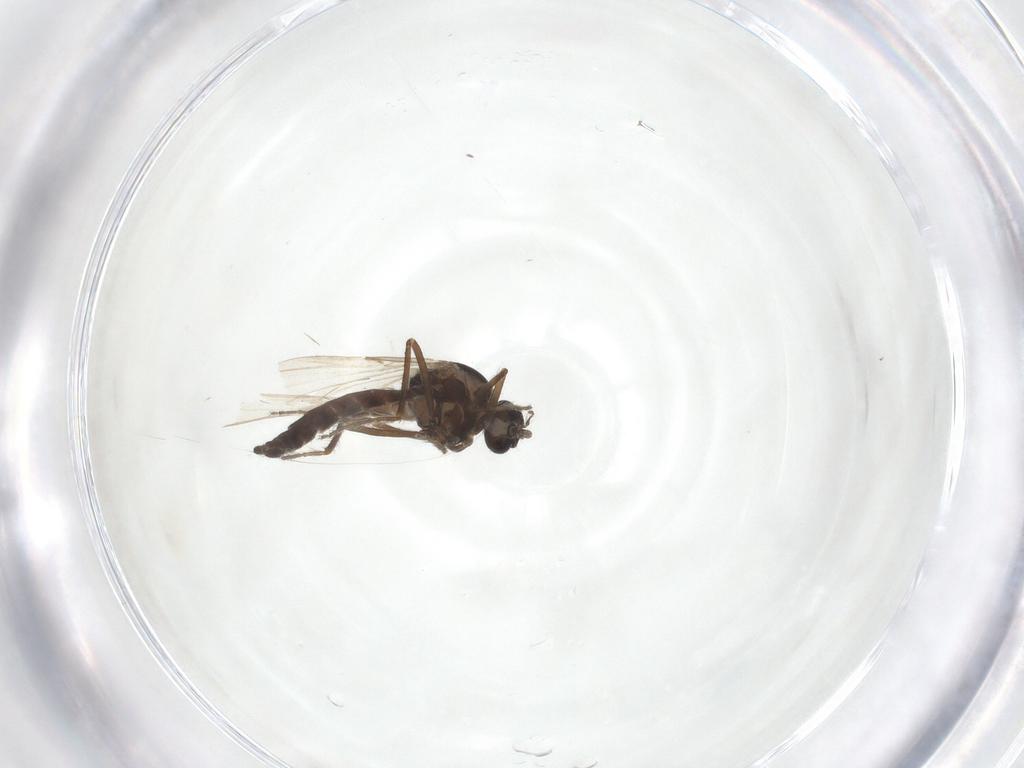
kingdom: Animalia
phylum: Arthropoda
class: Insecta
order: Diptera
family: Ceratopogonidae
